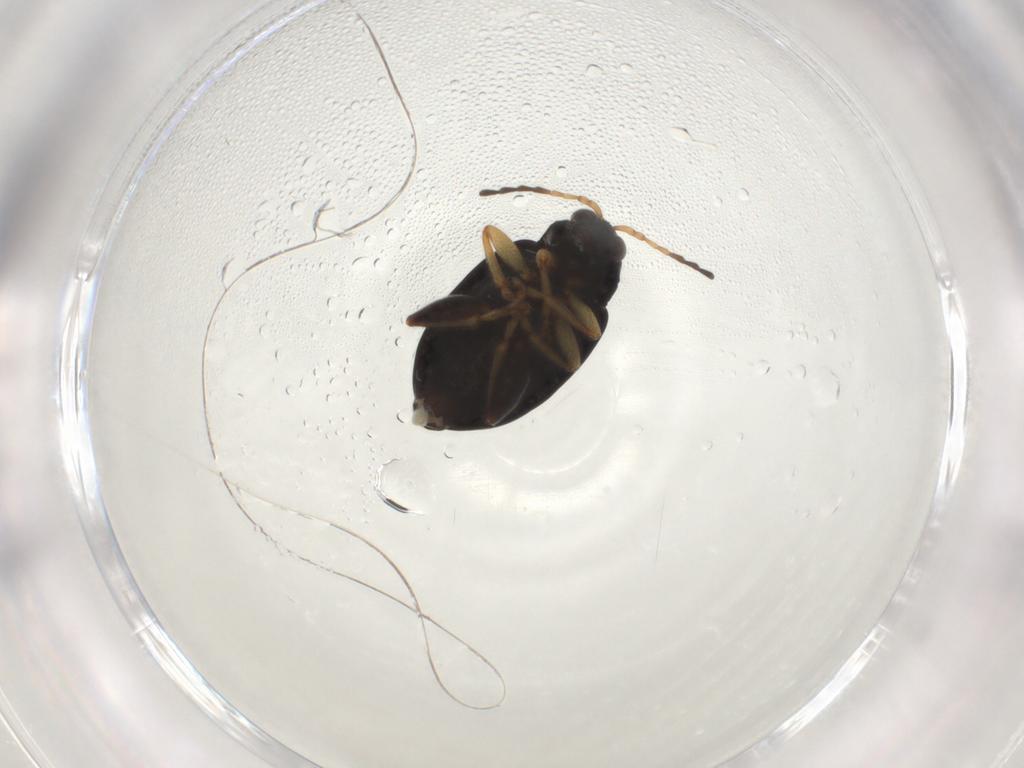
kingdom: Animalia
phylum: Arthropoda
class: Insecta
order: Coleoptera
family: Chrysomelidae
